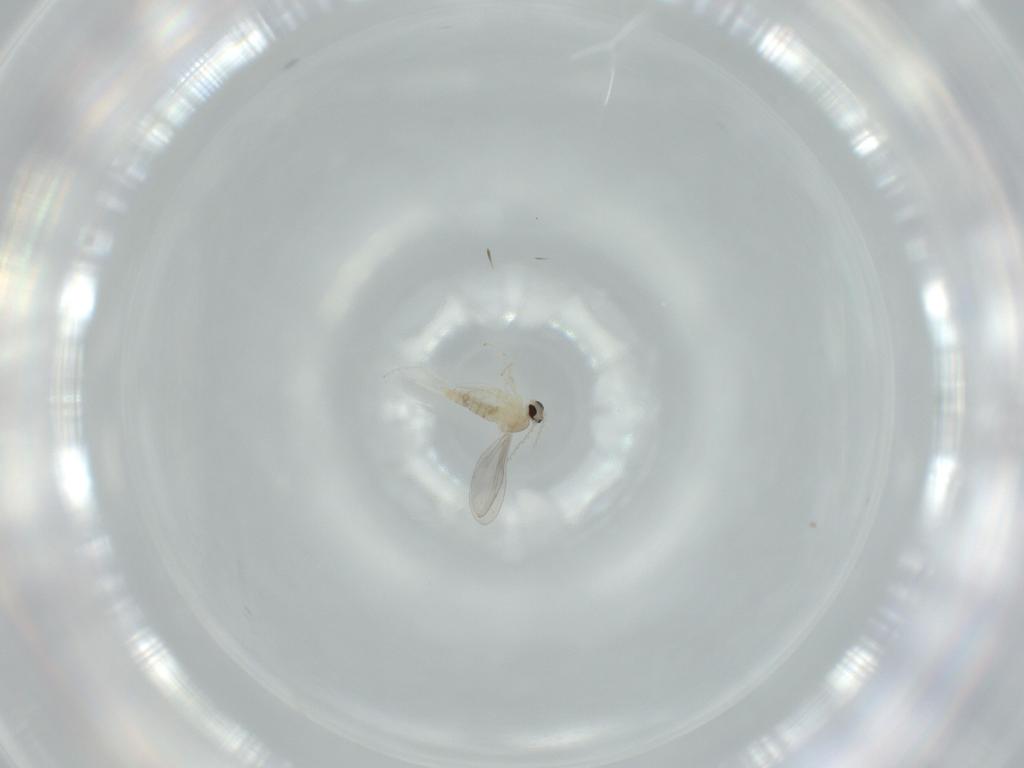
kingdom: Animalia
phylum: Arthropoda
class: Insecta
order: Diptera
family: Cecidomyiidae
